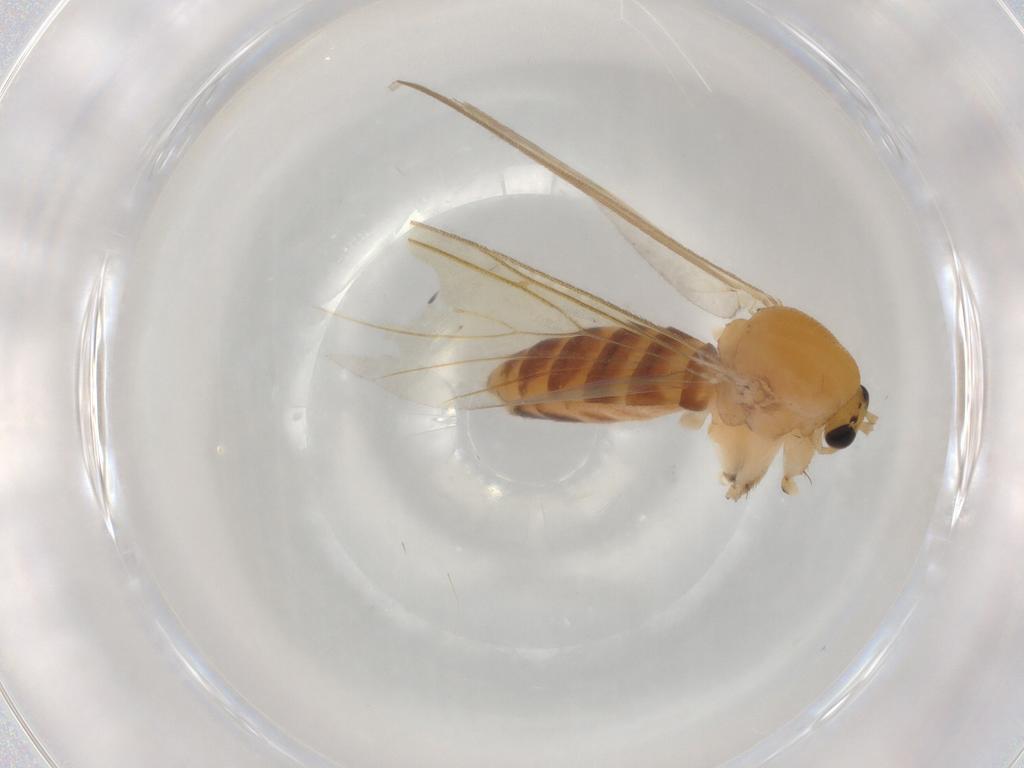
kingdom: Animalia
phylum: Arthropoda
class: Insecta
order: Diptera
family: Mycetophilidae
